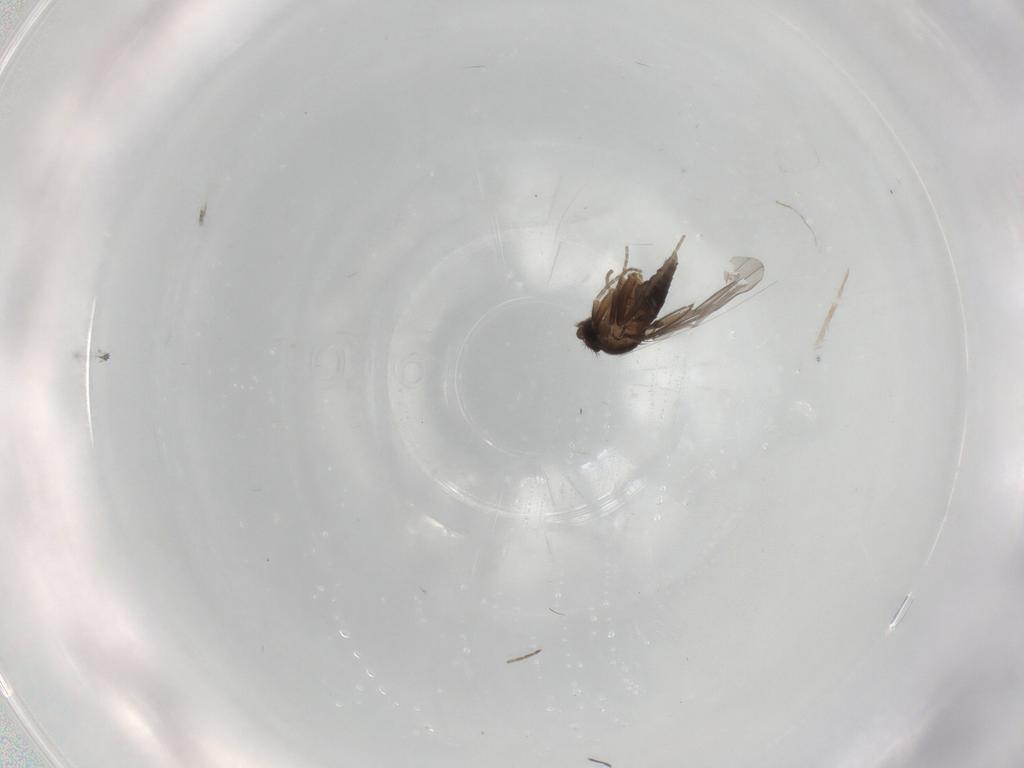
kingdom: Animalia
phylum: Arthropoda
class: Insecta
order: Diptera
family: Cecidomyiidae
